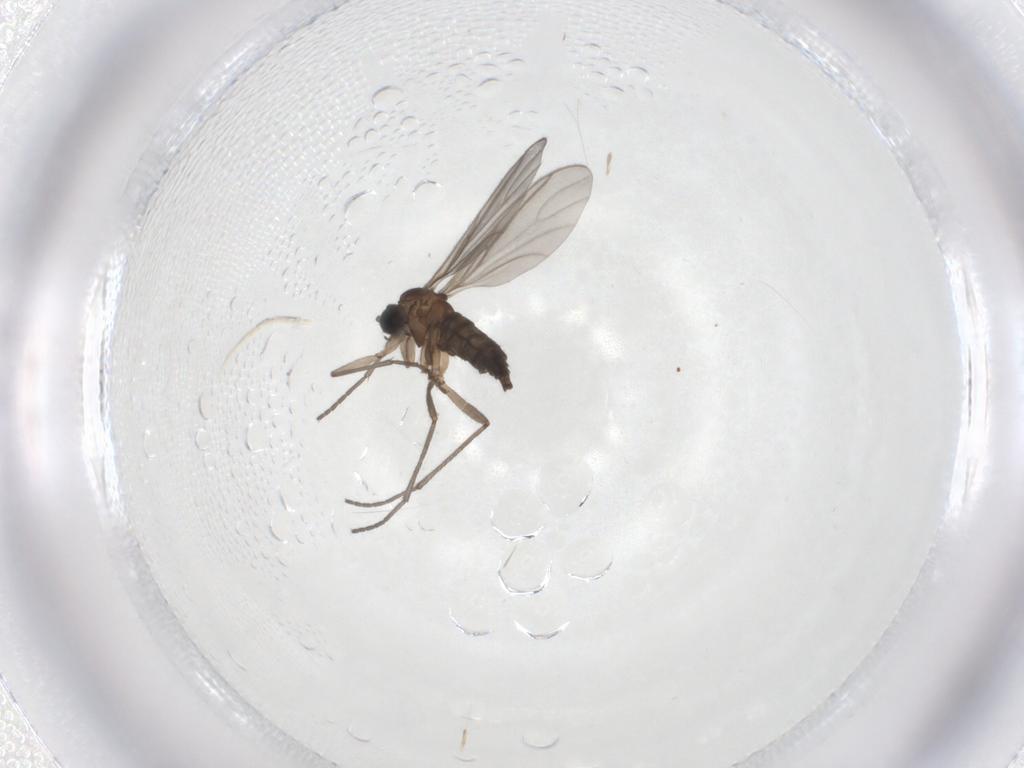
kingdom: Animalia
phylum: Arthropoda
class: Insecta
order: Diptera
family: Sciaridae
